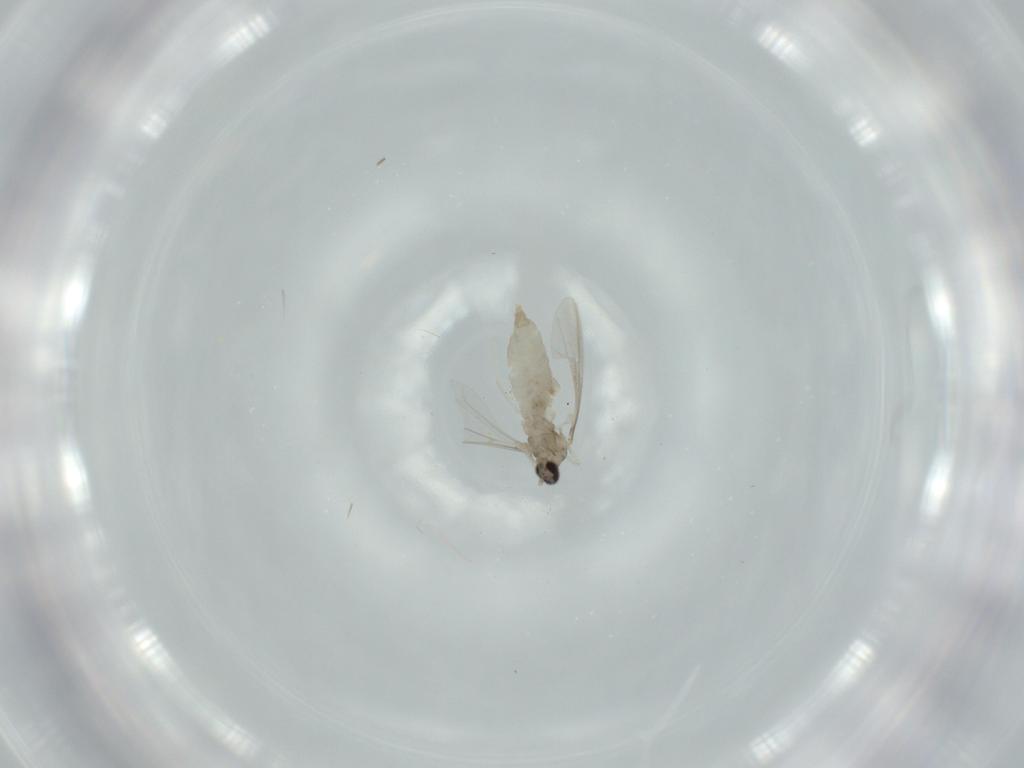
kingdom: Animalia
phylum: Arthropoda
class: Insecta
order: Diptera
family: Cecidomyiidae
